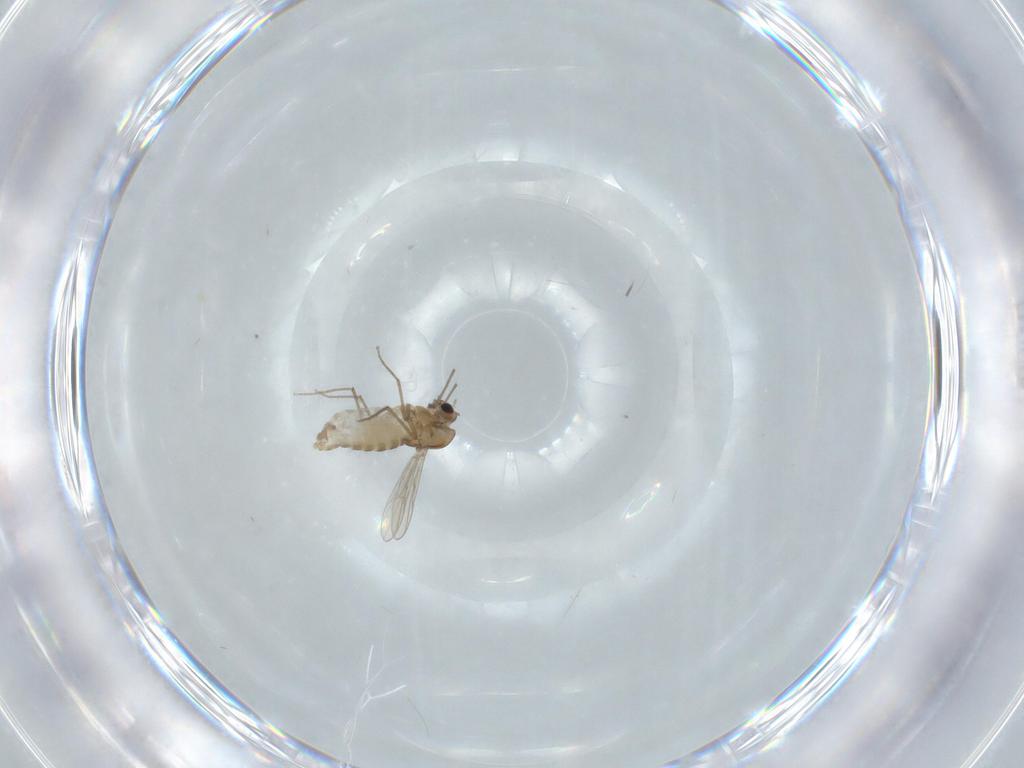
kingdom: Animalia
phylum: Arthropoda
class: Insecta
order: Diptera
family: Chironomidae
